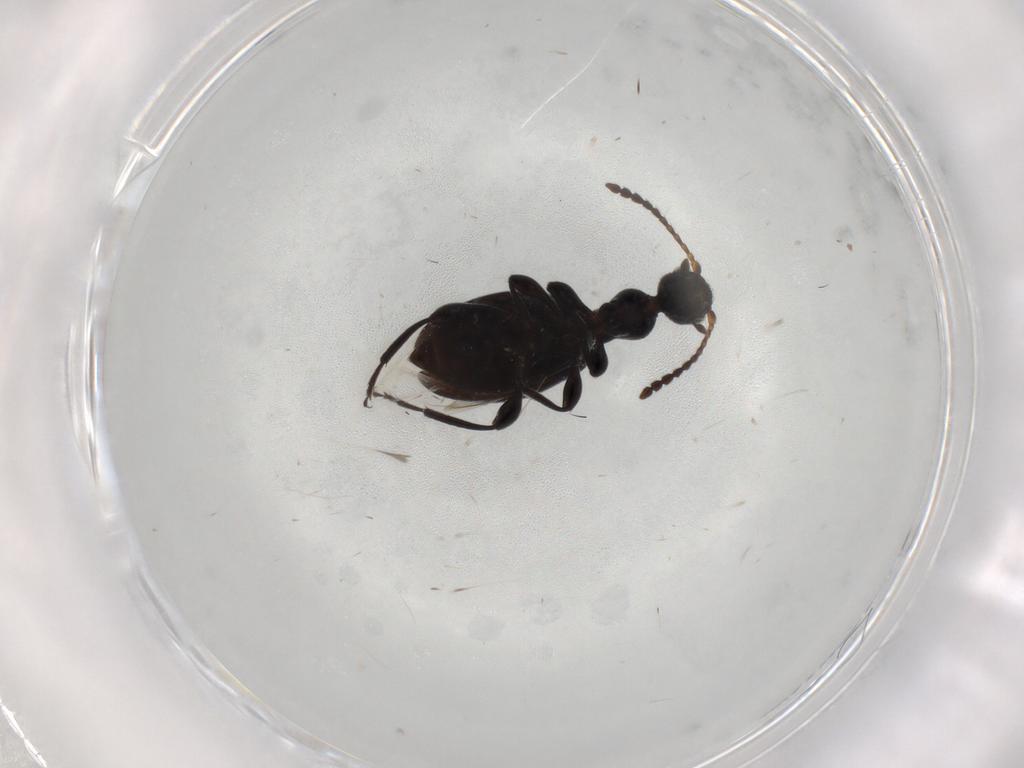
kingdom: Animalia
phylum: Arthropoda
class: Insecta
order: Coleoptera
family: Anthicidae
